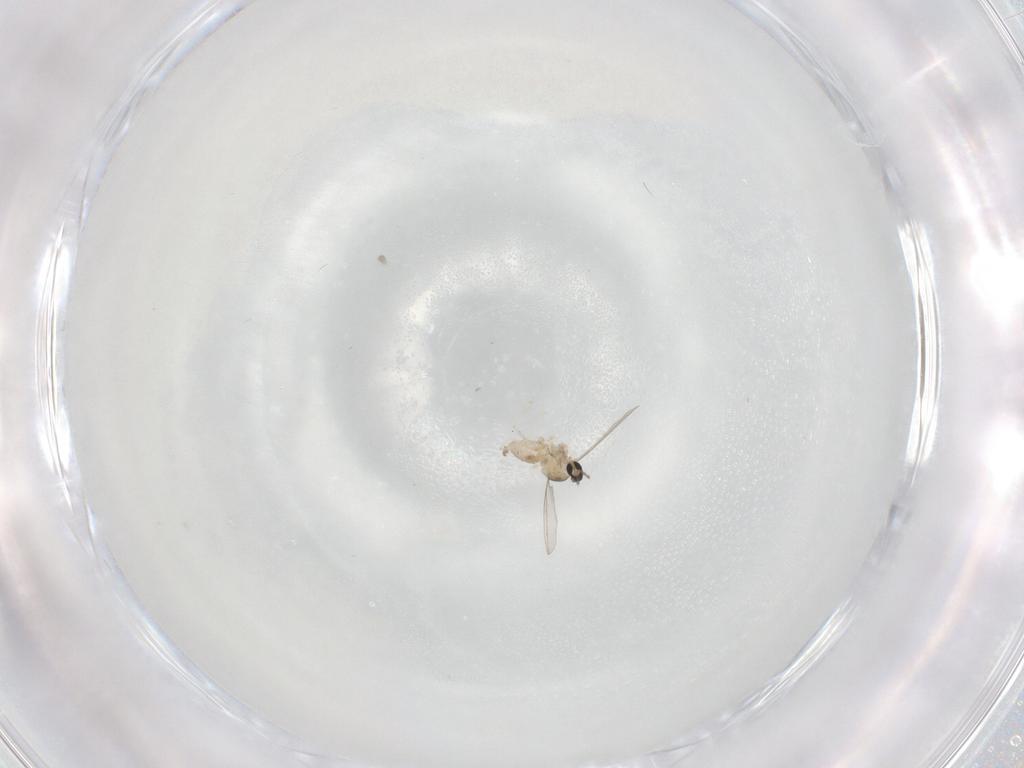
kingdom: Animalia
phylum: Arthropoda
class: Insecta
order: Diptera
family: Chloropidae
